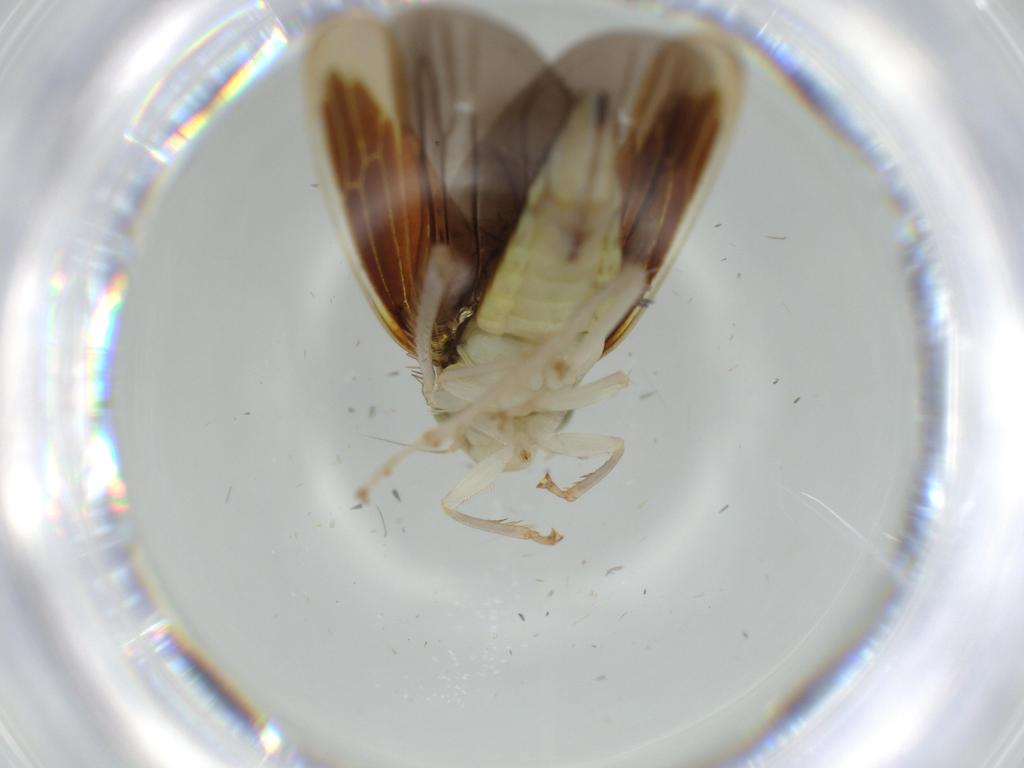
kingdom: Animalia
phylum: Arthropoda
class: Insecta
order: Hemiptera
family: Cicadellidae
